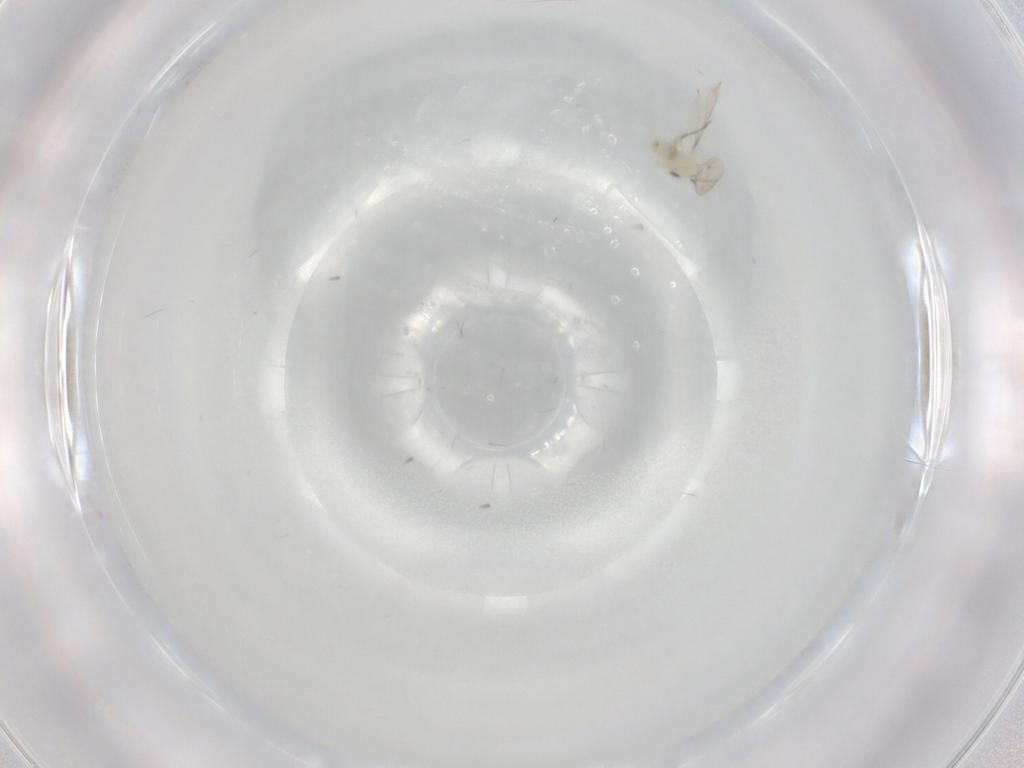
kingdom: Animalia
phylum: Arthropoda
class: Insecta
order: Diptera
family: Cecidomyiidae
